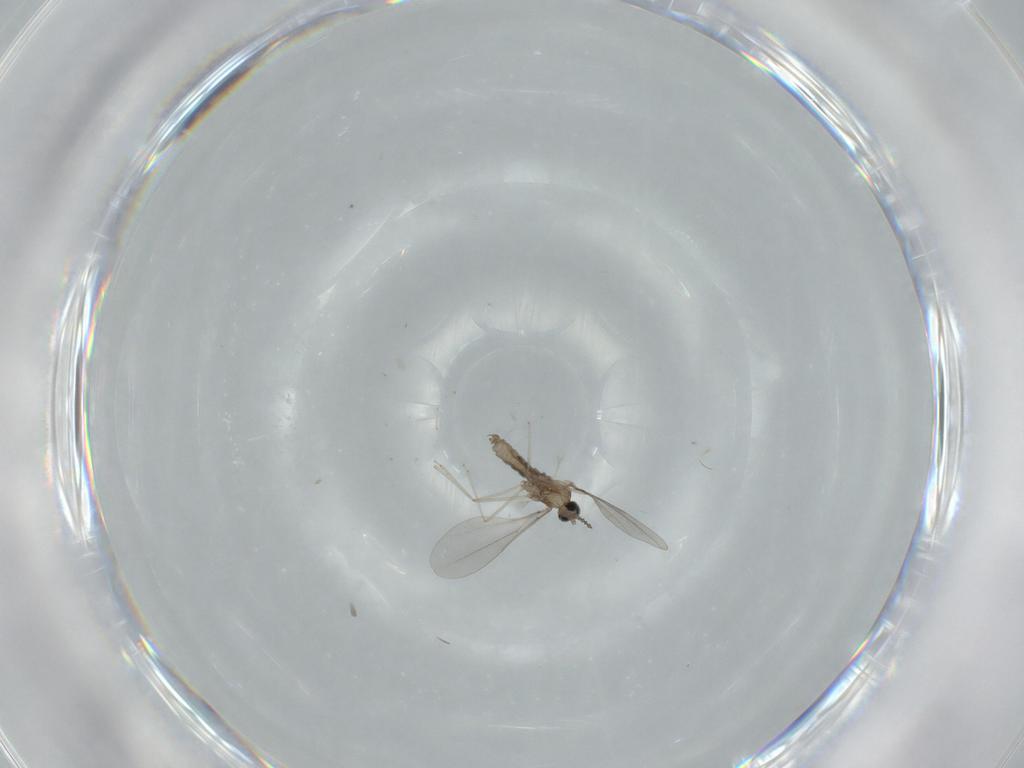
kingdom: Animalia
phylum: Arthropoda
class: Insecta
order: Diptera
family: Cecidomyiidae
